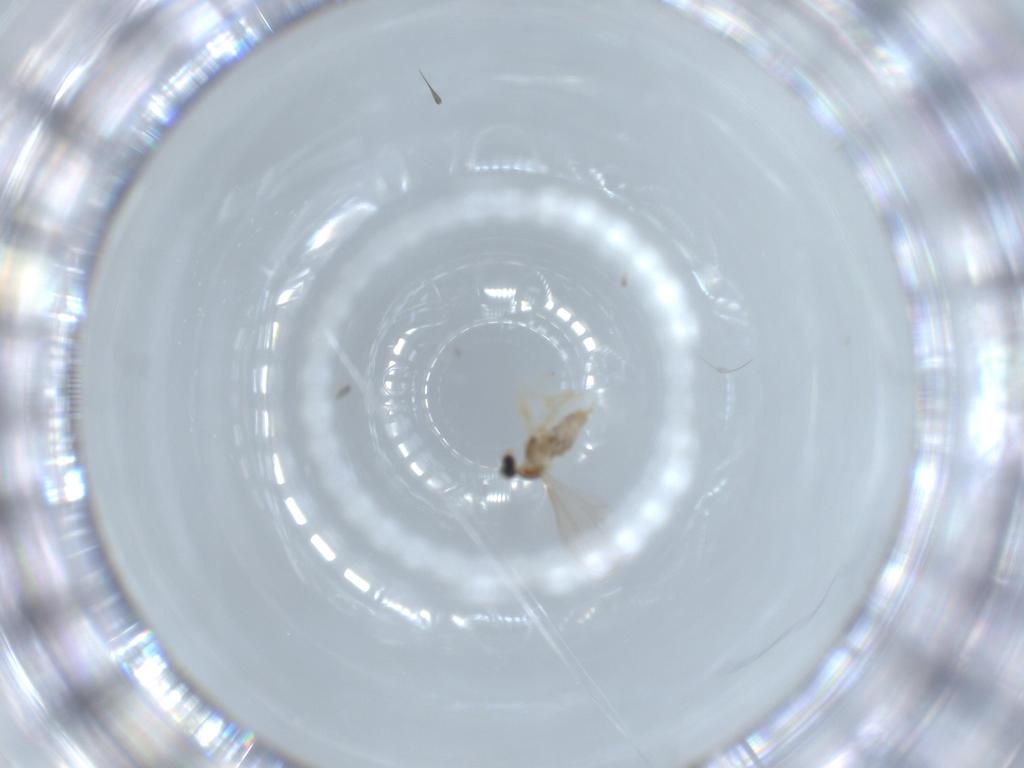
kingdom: Animalia
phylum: Arthropoda
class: Insecta
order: Diptera
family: Cecidomyiidae
